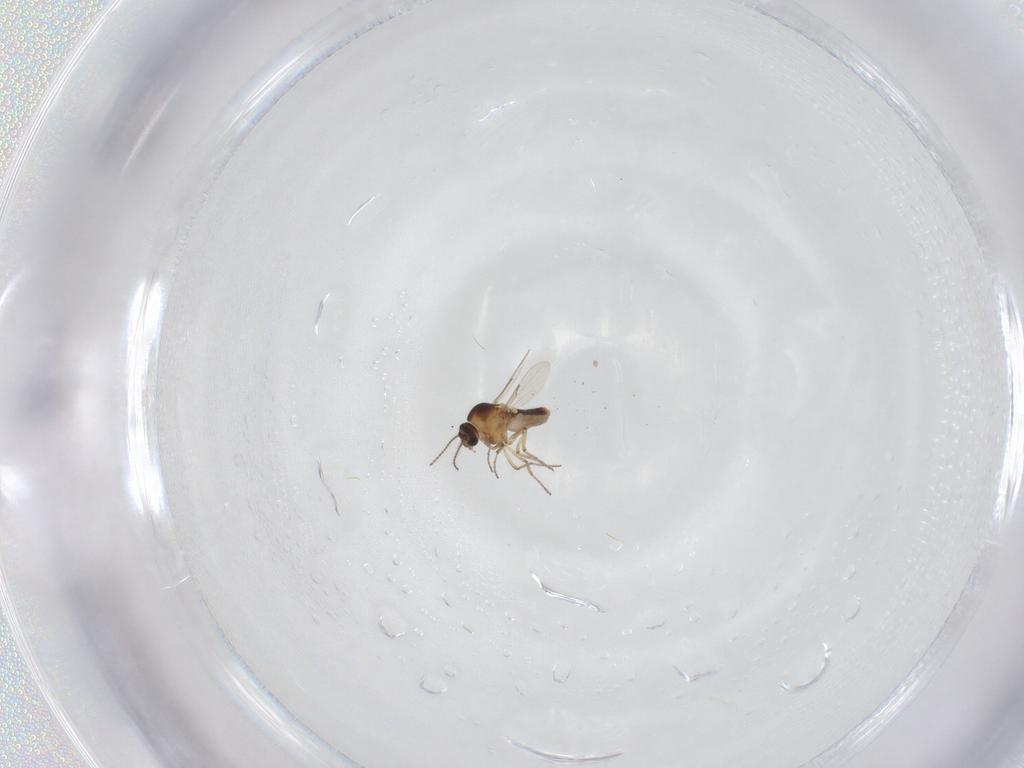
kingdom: Animalia
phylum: Arthropoda
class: Insecta
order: Diptera
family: Ceratopogonidae
